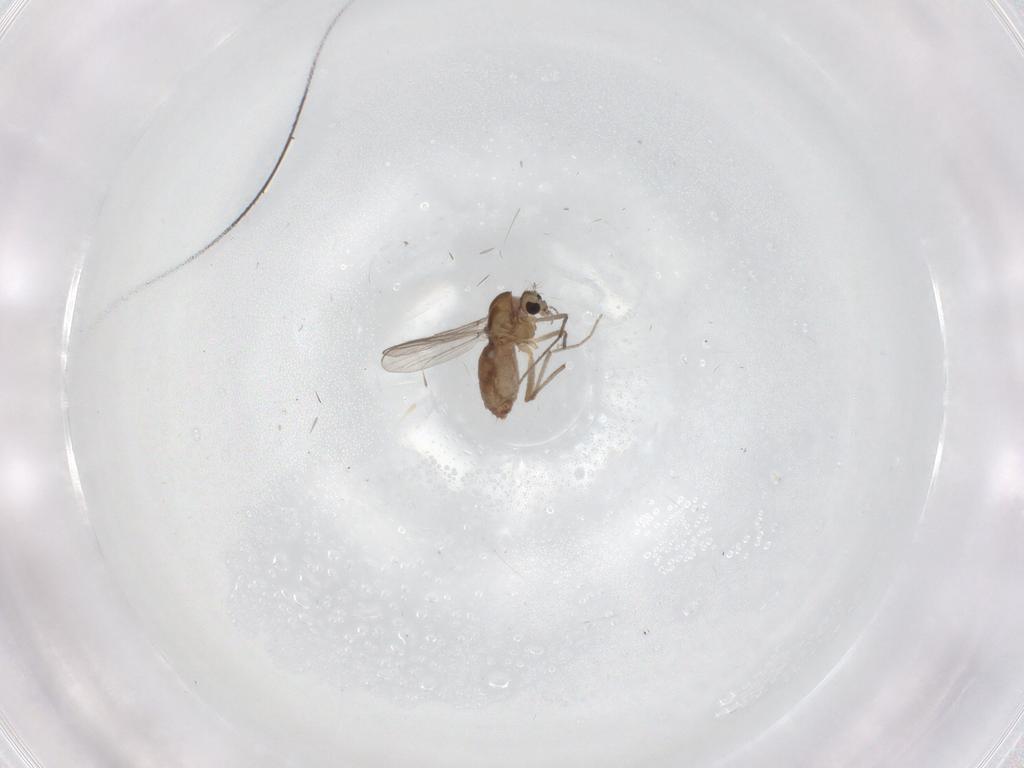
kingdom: Animalia
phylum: Arthropoda
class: Insecta
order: Diptera
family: Chironomidae
